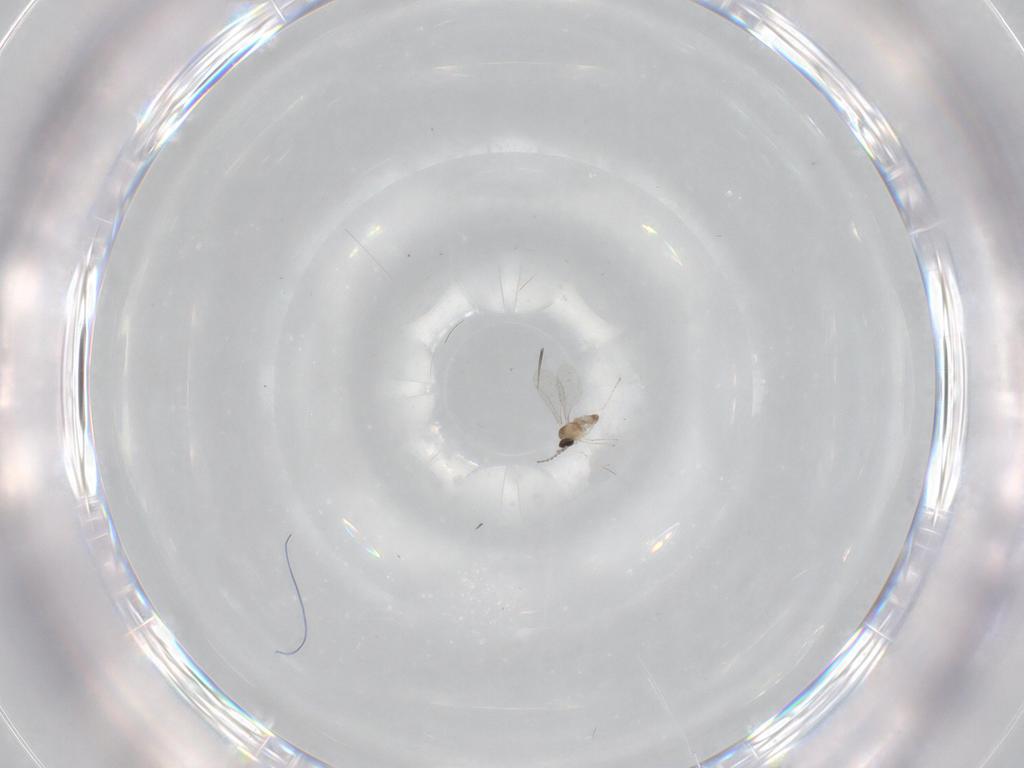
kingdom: Animalia
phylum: Arthropoda
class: Insecta
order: Diptera
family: Cecidomyiidae
